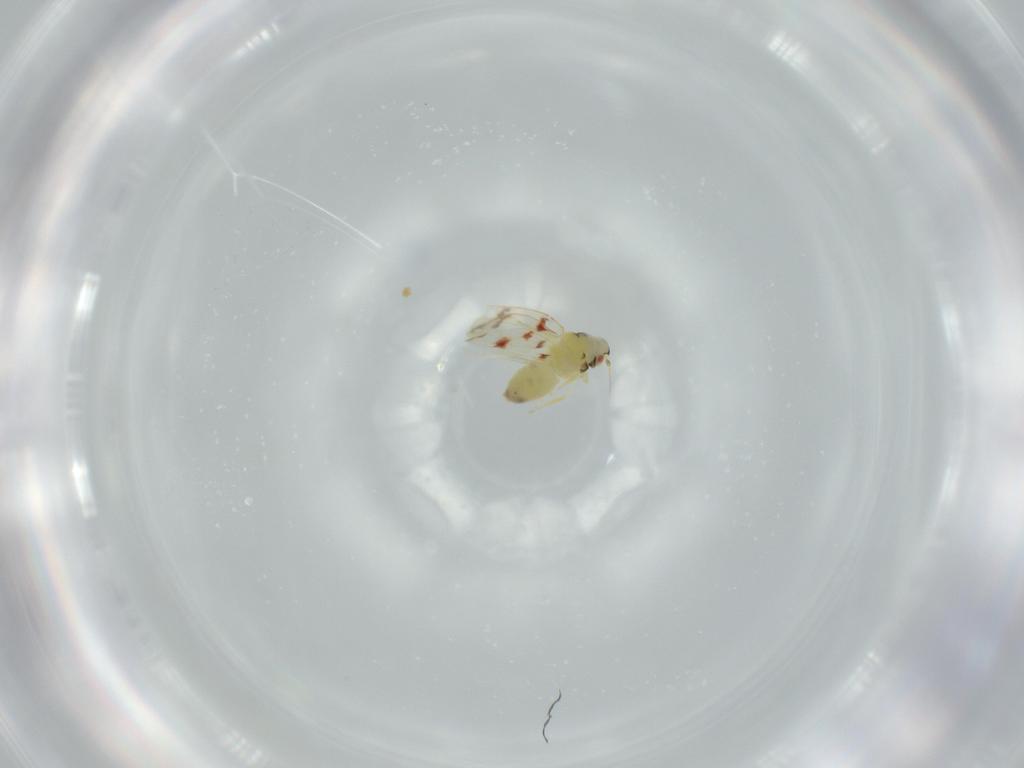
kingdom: Animalia
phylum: Arthropoda
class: Insecta
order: Hemiptera
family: Aleyrodidae
